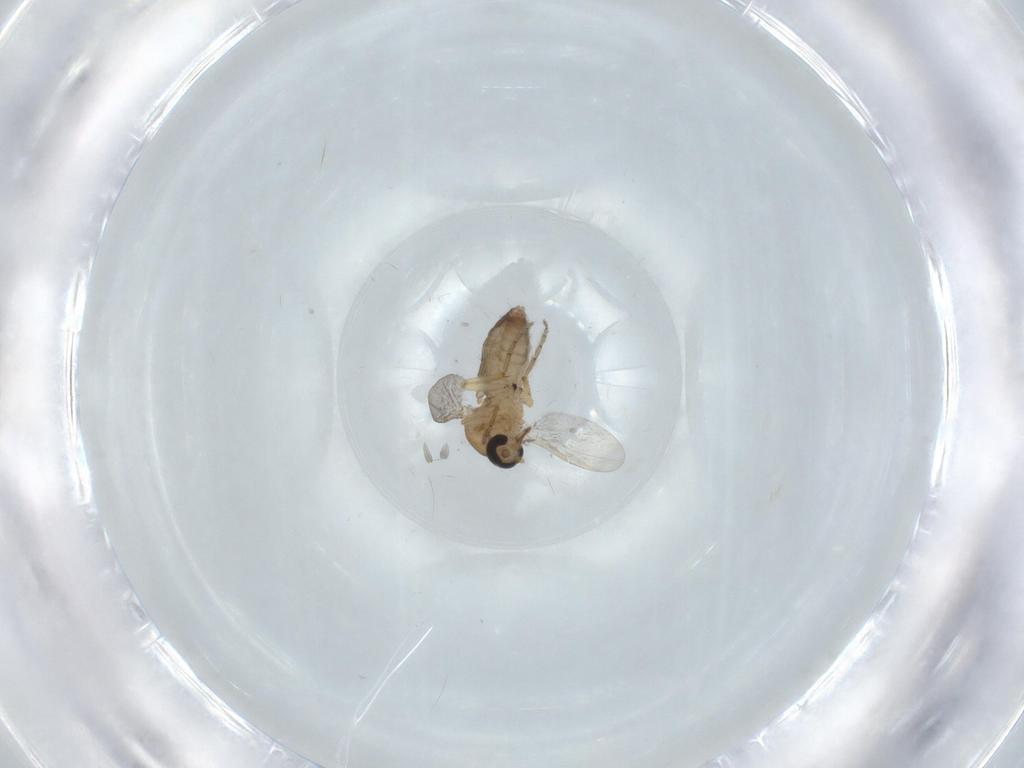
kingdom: Animalia
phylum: Arthropoda
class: Insecta
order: Diptera
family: Ceratopogonidae
